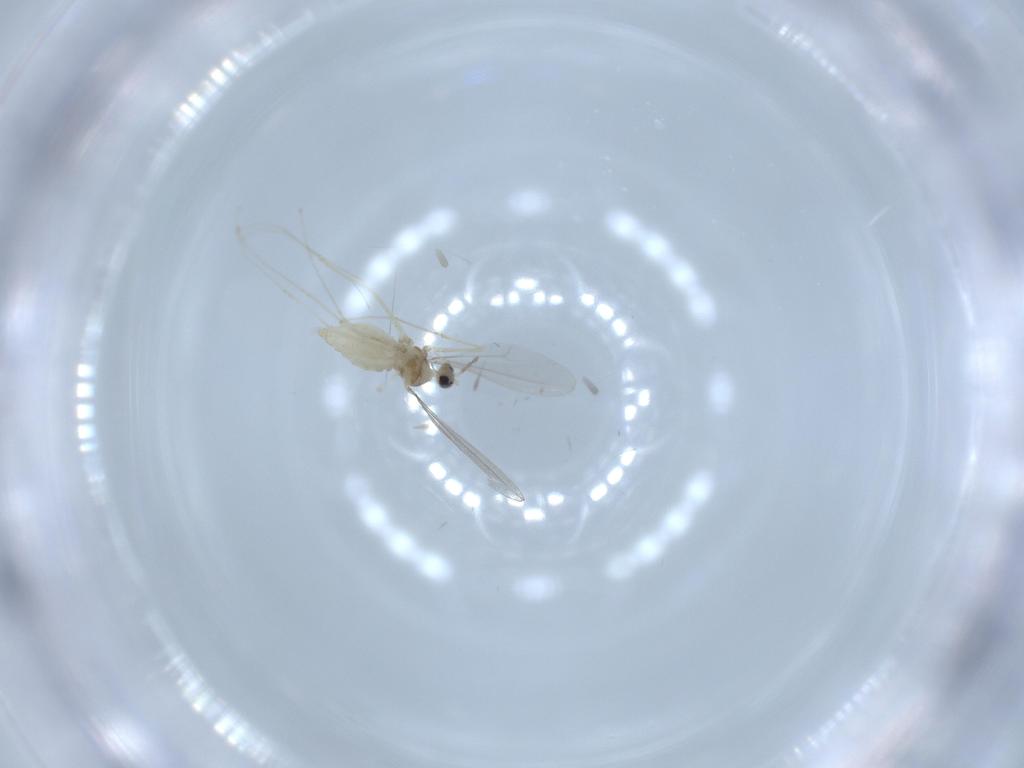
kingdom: Animalia
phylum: Arthropoda
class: Insecta
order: Diptera
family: Cecidomyiidae
